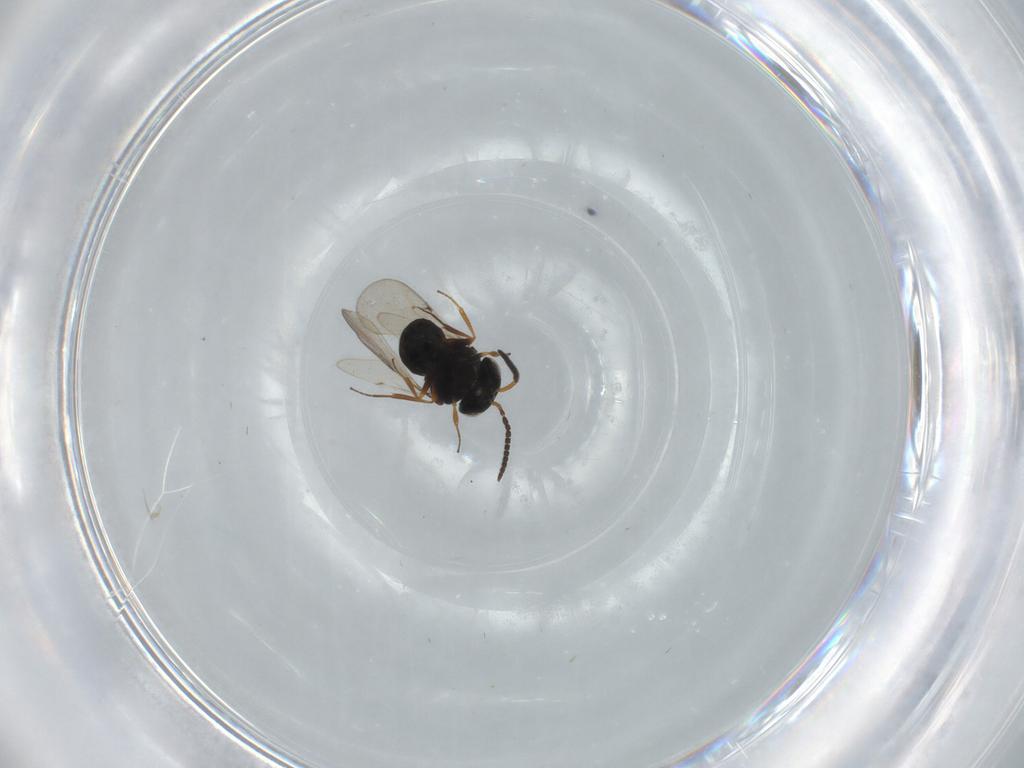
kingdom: Animalia
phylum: Arthropoda
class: Insecta
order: Hymenoptera
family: Scelionidae
